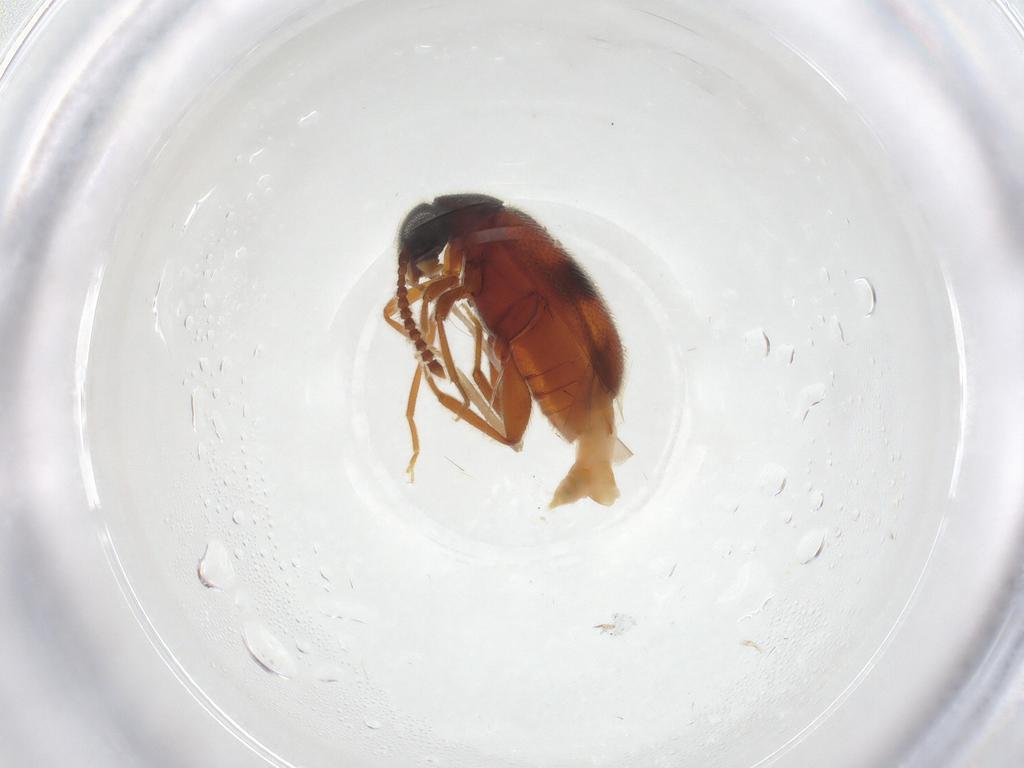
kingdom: Animalia
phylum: Arthropoda
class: Insecta
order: Coleoptera
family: Aderidae
